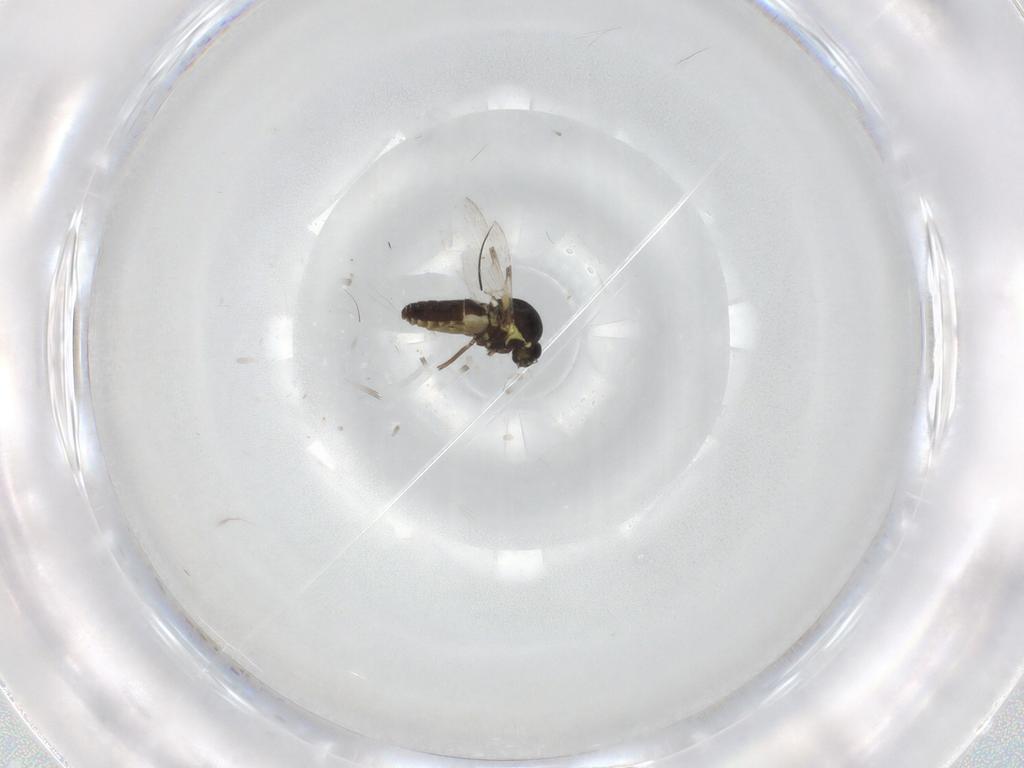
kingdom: Animalia
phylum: Arthropoda
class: Insecta
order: Diptera
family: Ceratopogonidae
